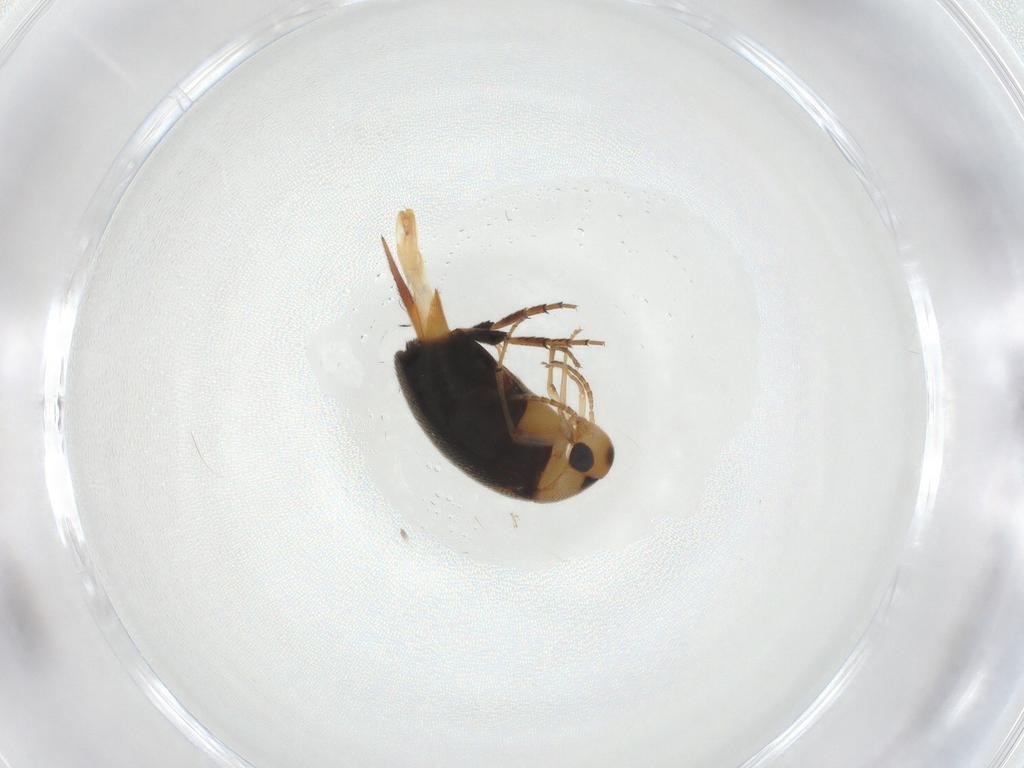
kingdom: Animalia
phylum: Arthropoda
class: Insecta
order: Coleoptera
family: Mordellidae
